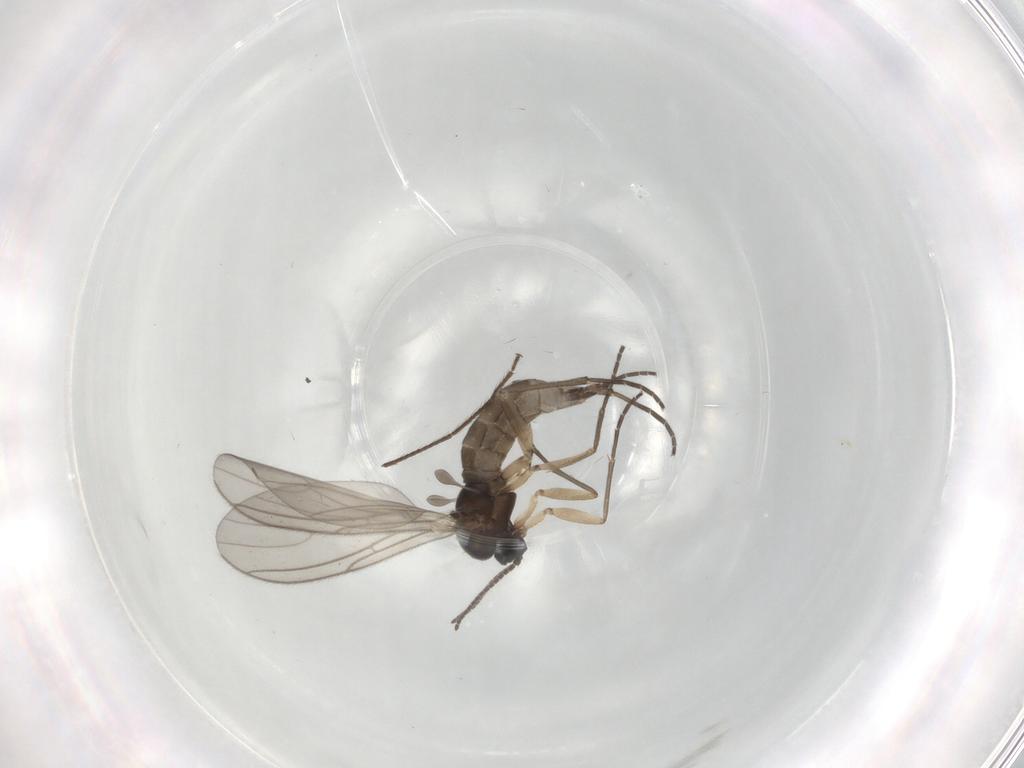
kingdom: Animalia
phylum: Arthropoda
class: Insecta
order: Diptera
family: Sciaridae
